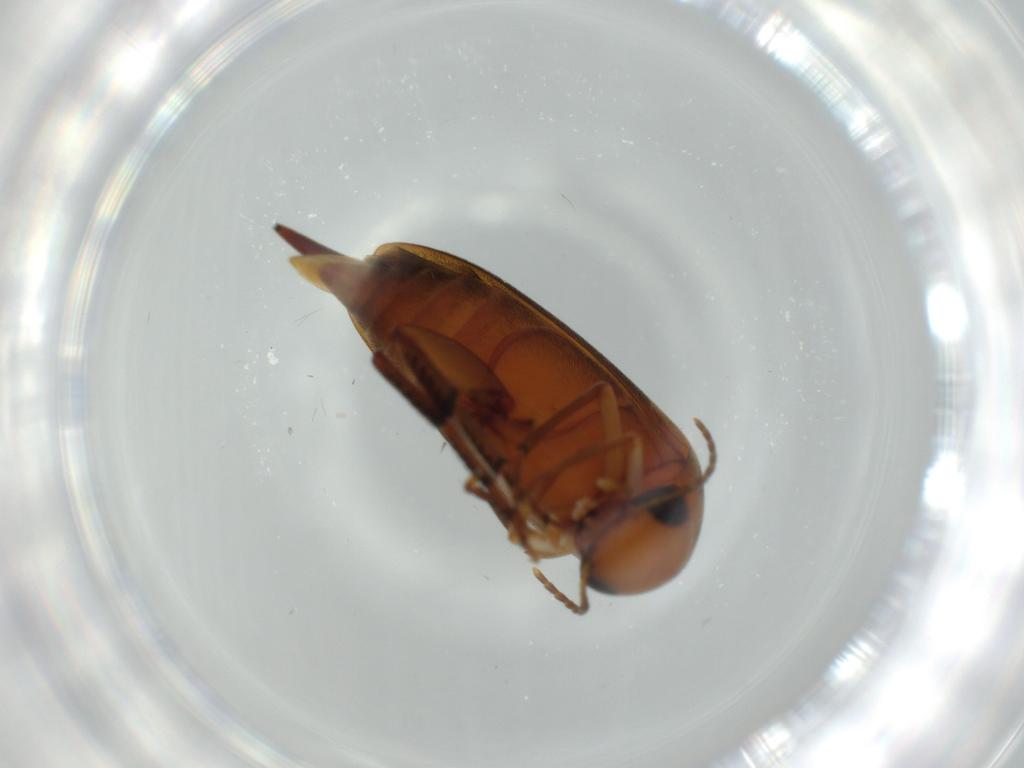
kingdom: Animalia
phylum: Arthropoda
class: Insecta
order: Coleoptera
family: Mordellidae
